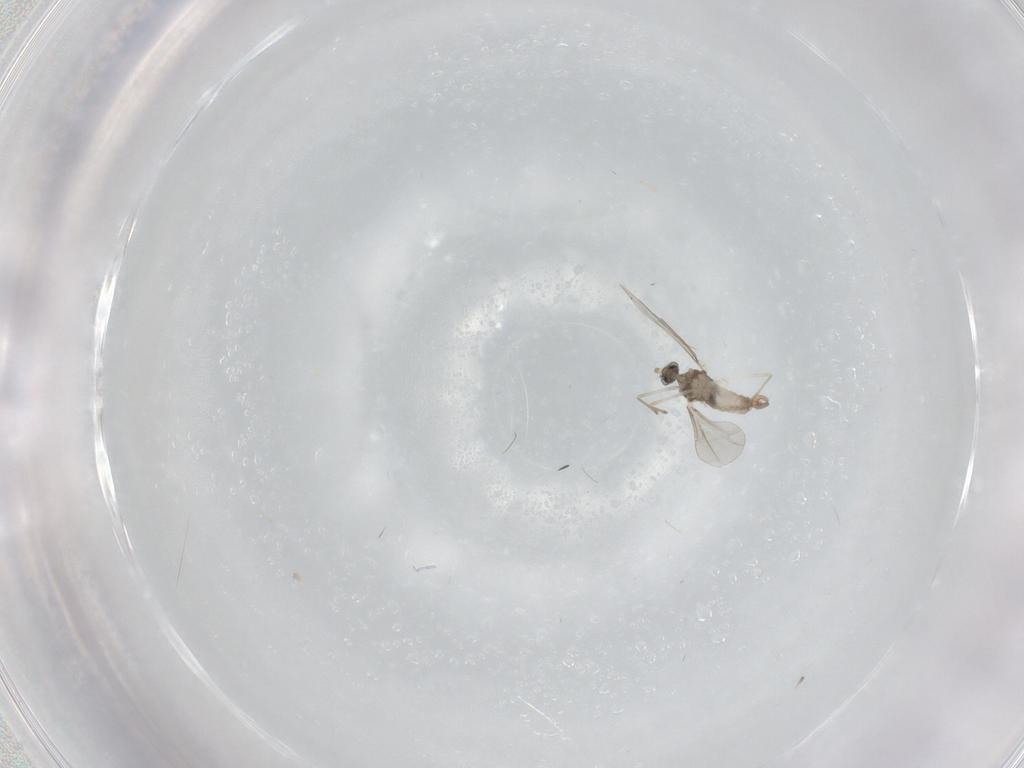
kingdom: Animalia
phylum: Arthropoda
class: Insecta
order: Diptera
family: Cecidomyiidae
